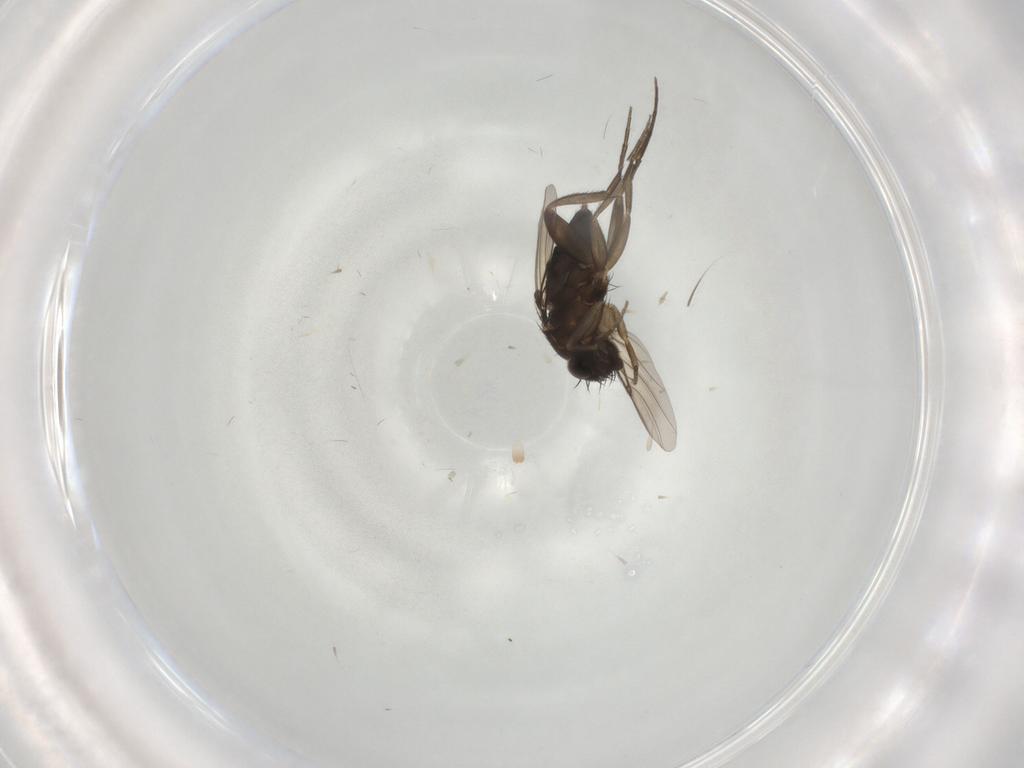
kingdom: Animalia
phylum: Arthropoda
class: Insecta
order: Diptera
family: Phoridae
